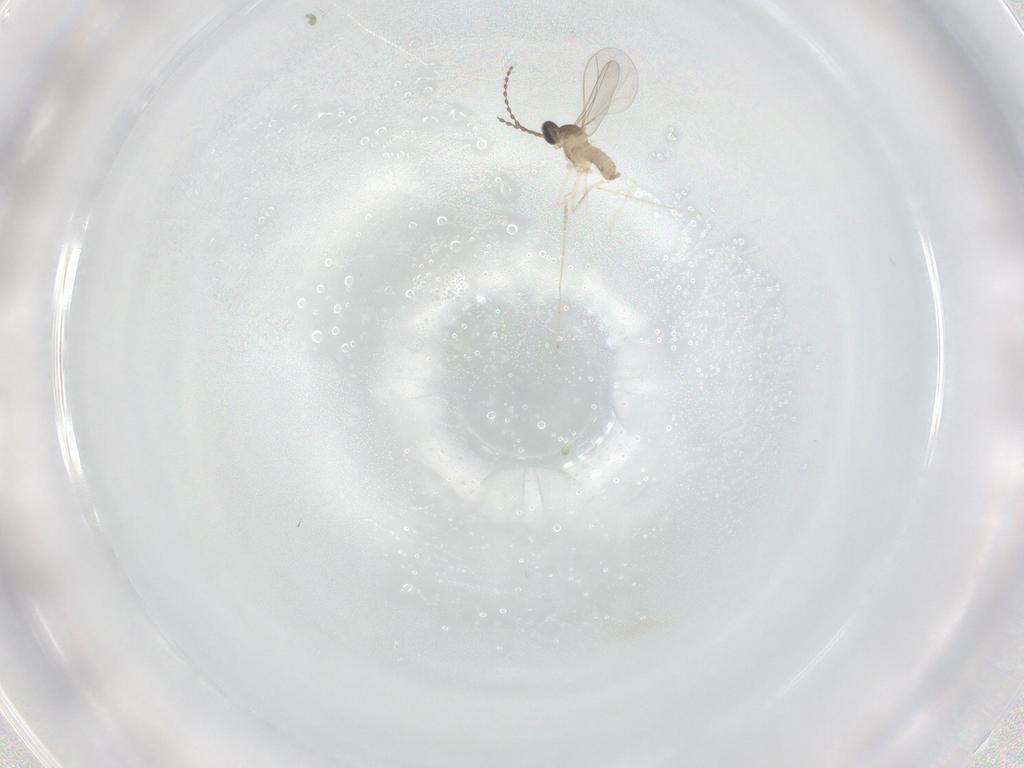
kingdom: Animalia
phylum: Arthropoda
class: Insecta
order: Diptera
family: Cecidomyiidae
